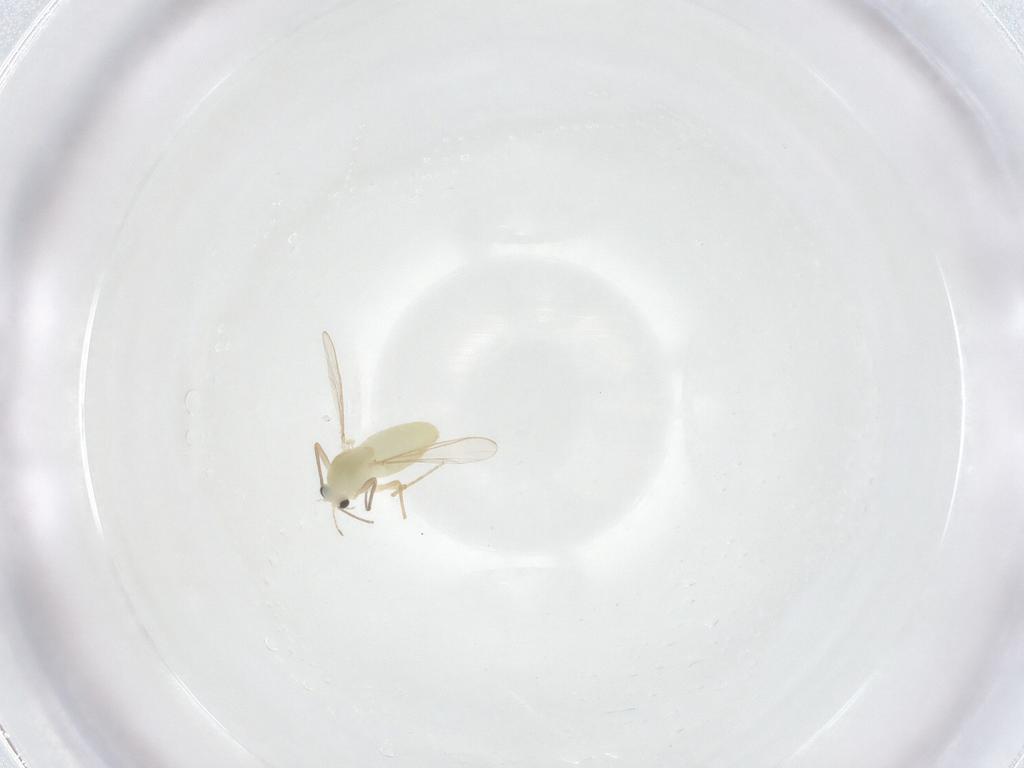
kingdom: Animalia
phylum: Arthropoda
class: Insecta
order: Diptera
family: Chironomidae
